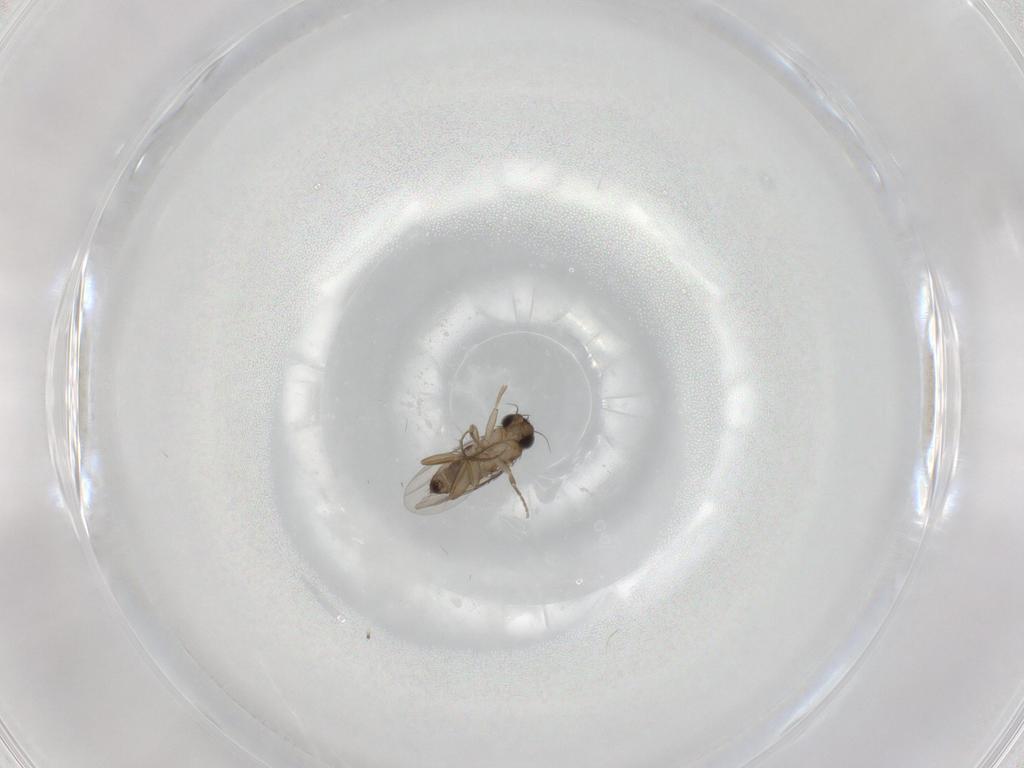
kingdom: Animalia
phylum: Arthropoda
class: Insecta
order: Diptera
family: Phoridae
